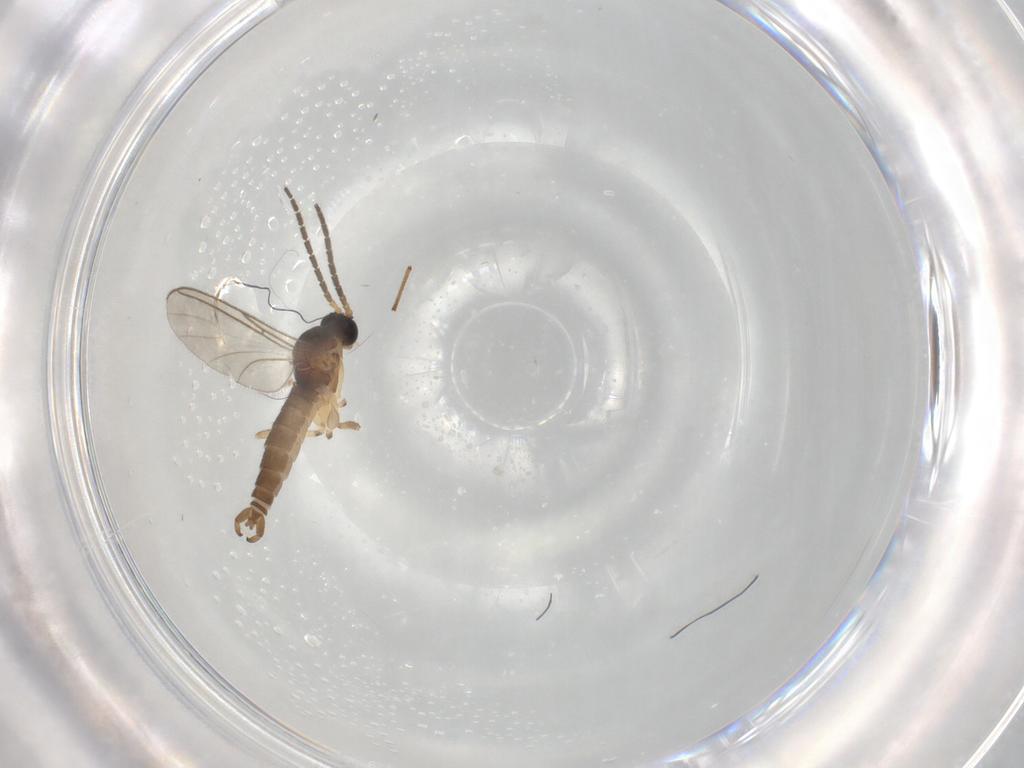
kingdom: Animalia
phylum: Arthropoda
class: Insecta
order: Diptera
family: Sciaridae
